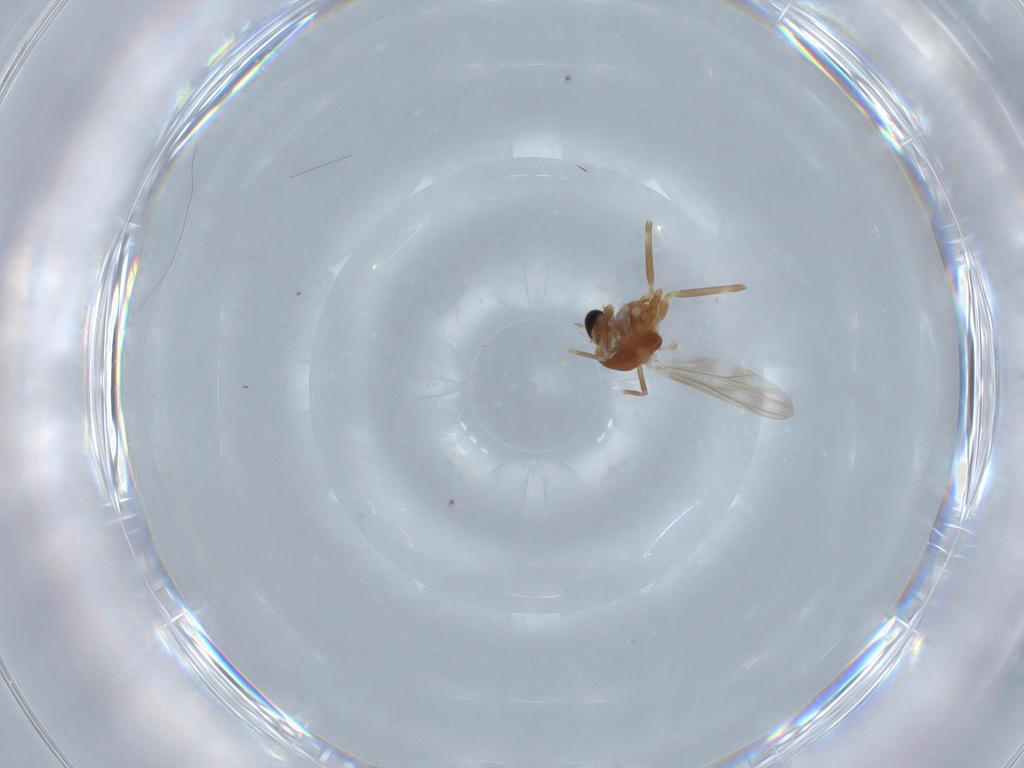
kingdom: Animalia
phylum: Arthropoda
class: Insecta
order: Diptera
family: Chironomidae
